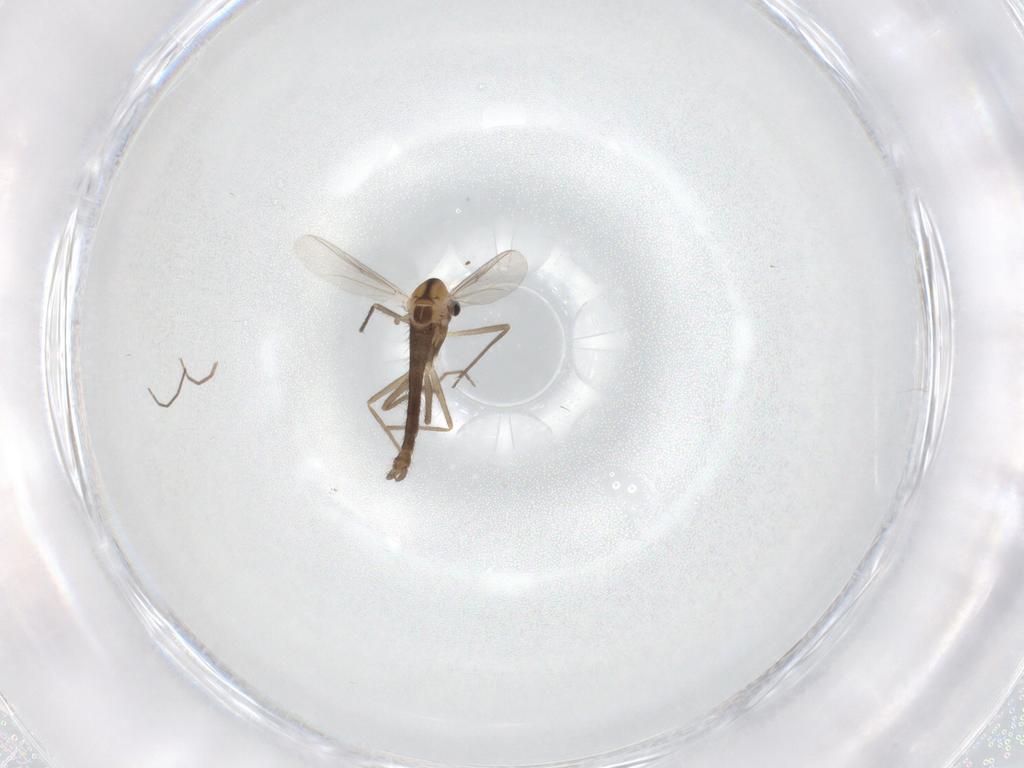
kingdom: Animalia
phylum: Arthropoda
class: Insecta
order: Diptera
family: Chironomidae
